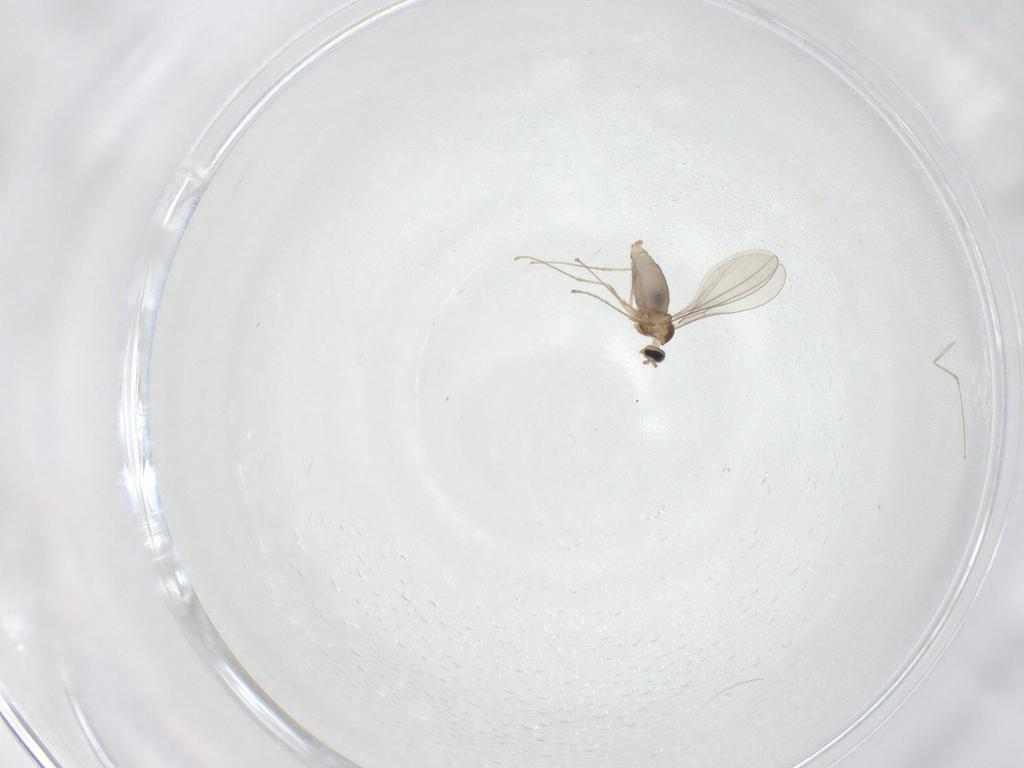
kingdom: Animalia
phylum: Arthropoda
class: Insecta
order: Diptera
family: Cecidomyiidae
